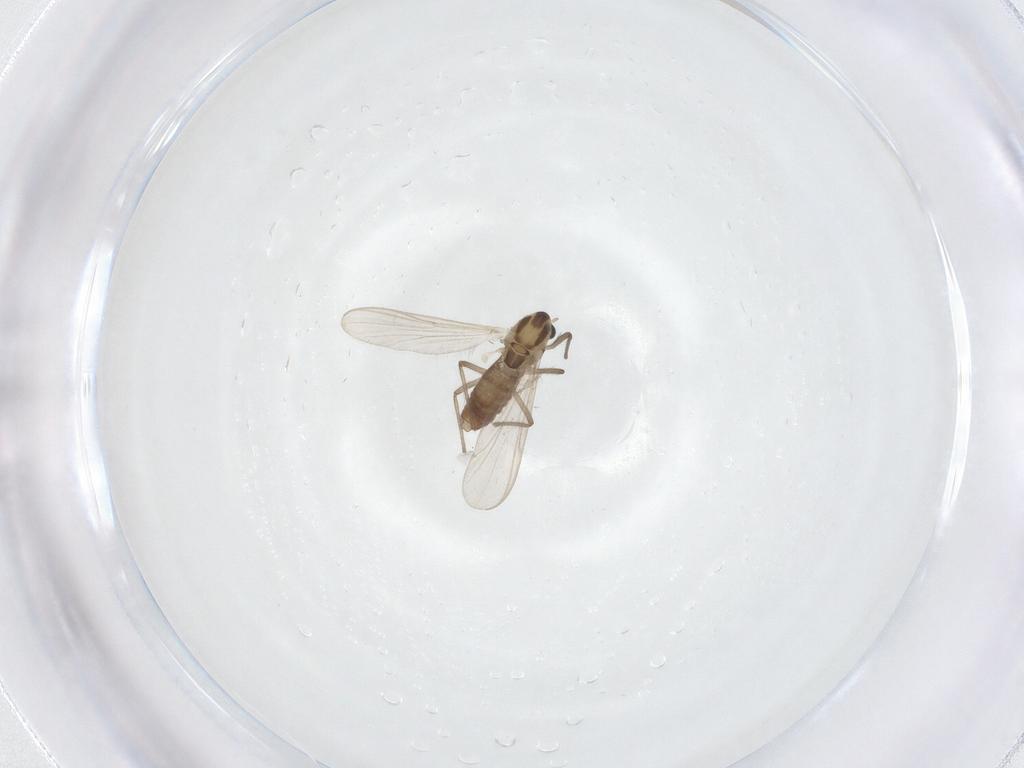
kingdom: Animalia
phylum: Arthropoda
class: Insecta
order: Diptera
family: Chironomidae
